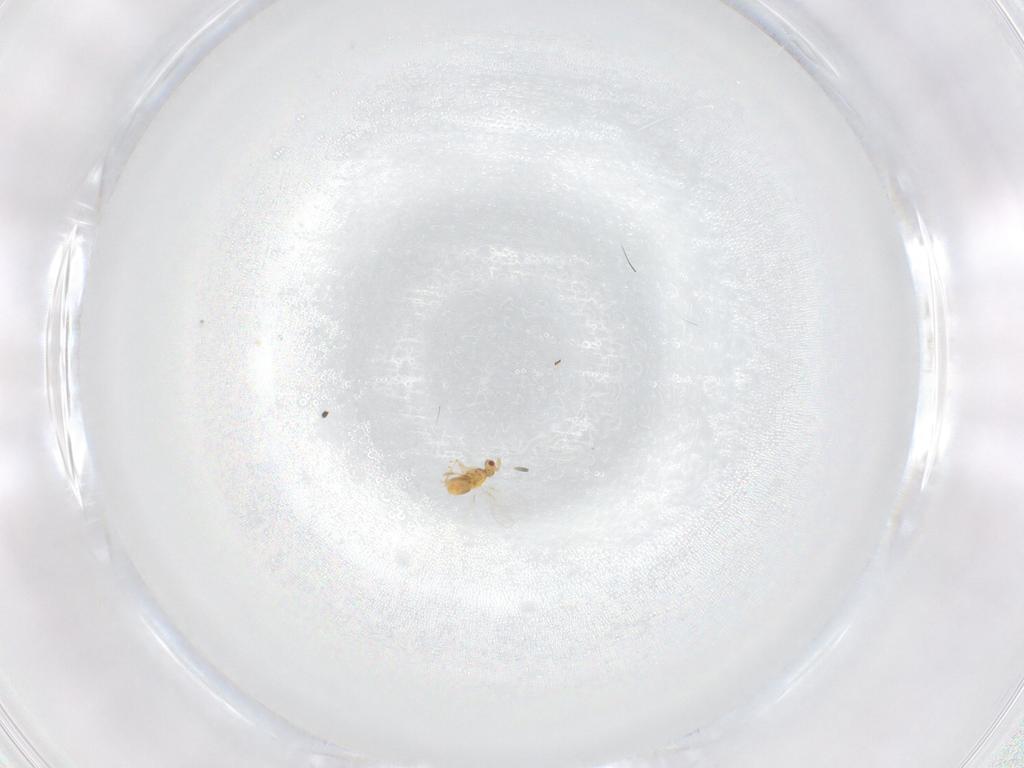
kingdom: Animalia
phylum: Arthropoda
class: Insecta
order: Hymenoptera
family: Trichogrammatidae
